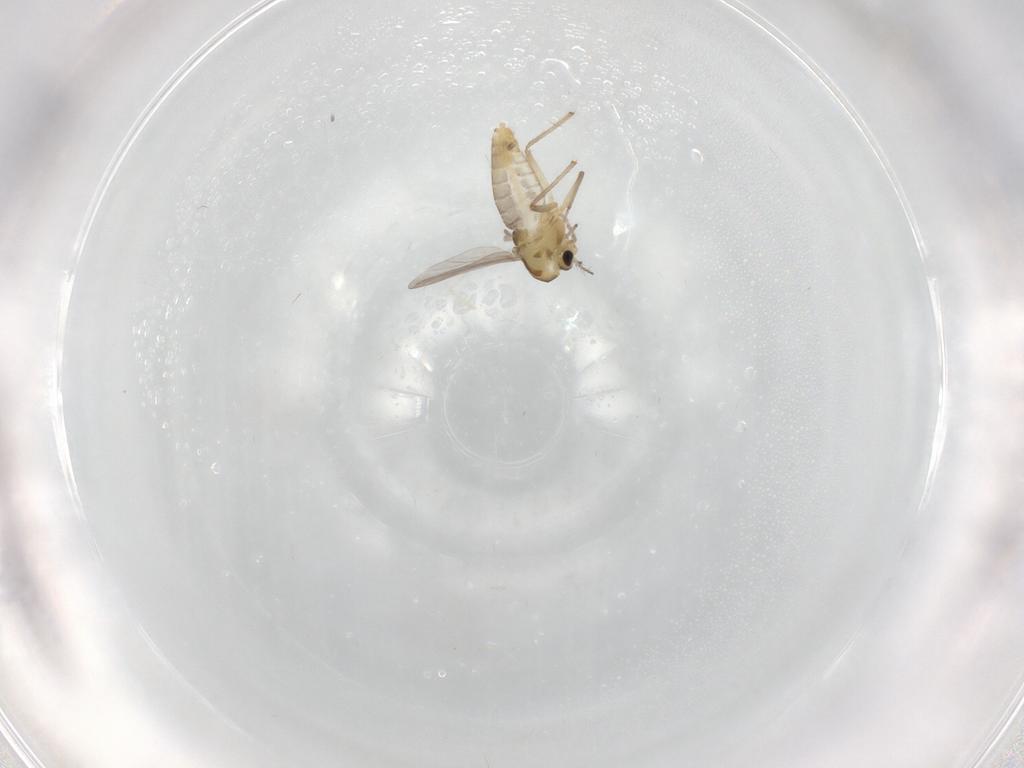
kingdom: Animalia
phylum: Arthropoda
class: Insecta
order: Diptera
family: Chironomidae
